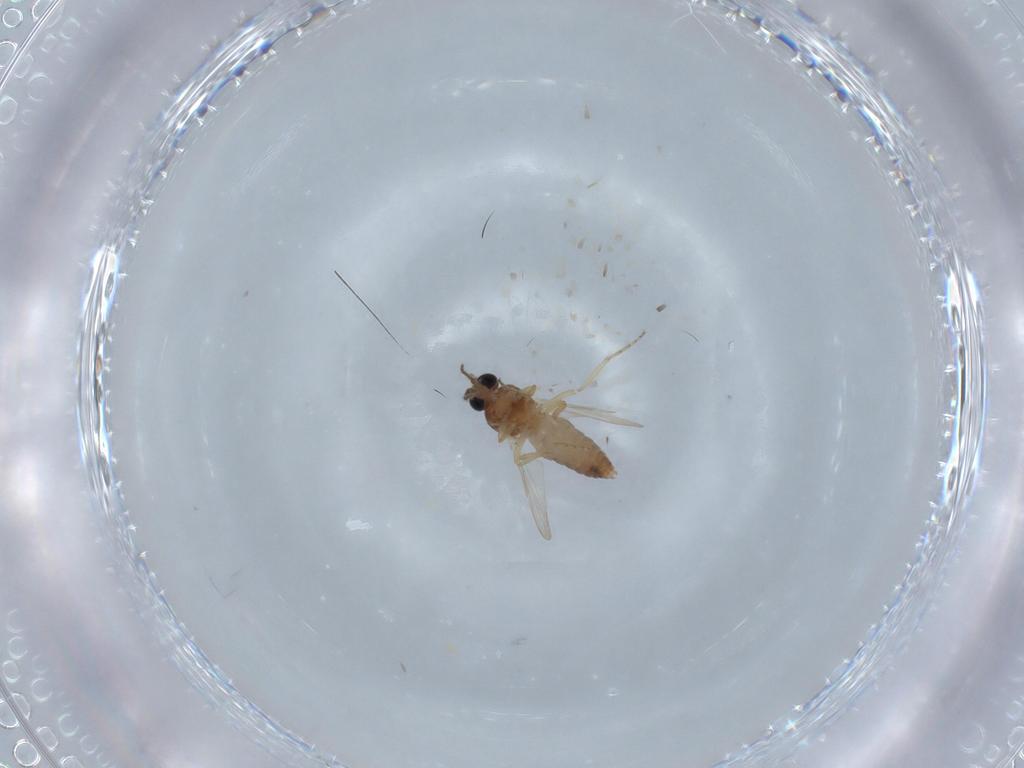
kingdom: Animalia
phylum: Arthropoda
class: Insecta
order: Diptera
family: Ceratopogonidae
